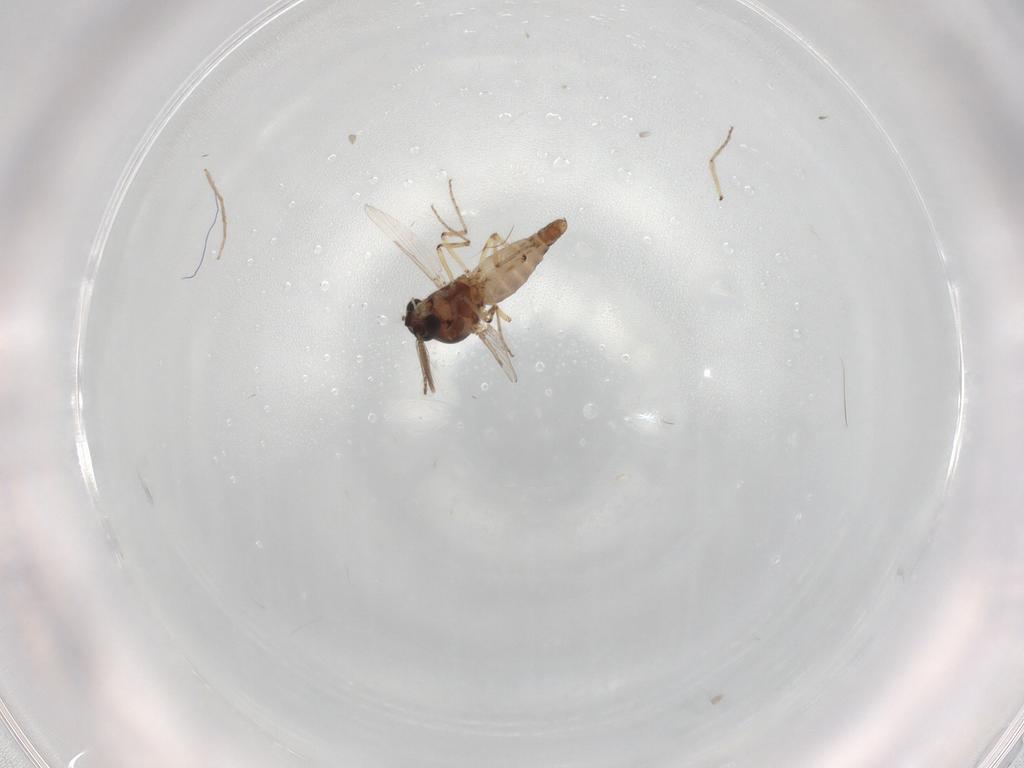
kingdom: Animalia
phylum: Arthropoda
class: Insecta
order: Diptera
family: Ceratopogonidae
